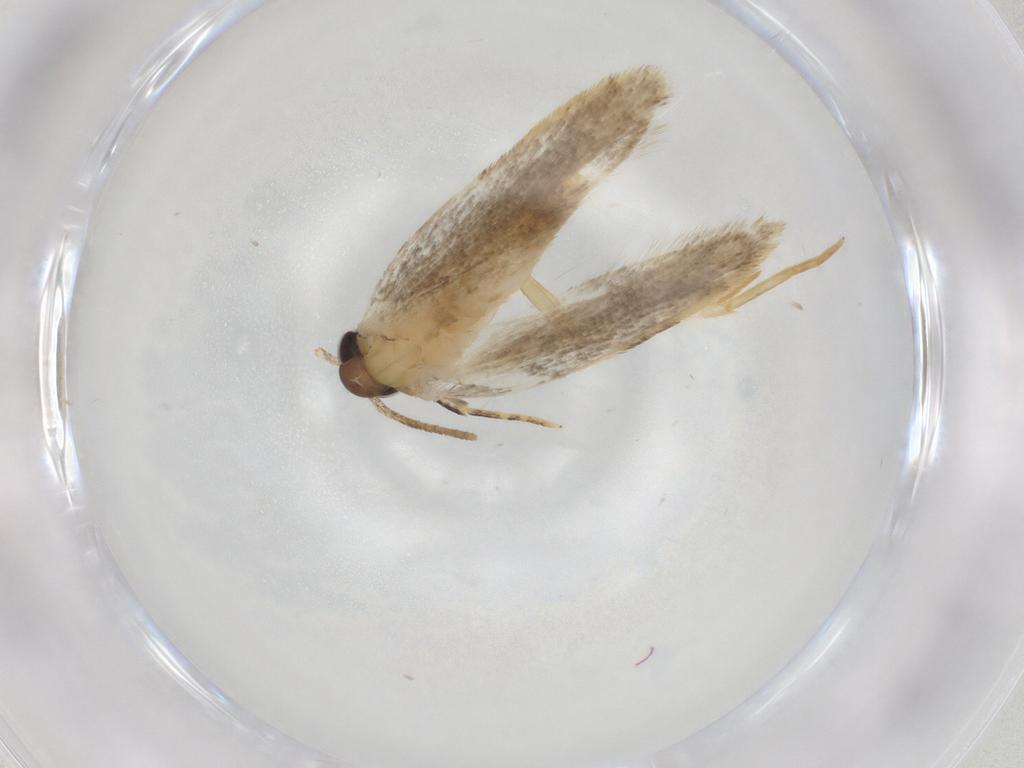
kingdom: Animalia
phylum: Arthropoda
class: Insecta
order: Lepidoptera
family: Autostichidae
